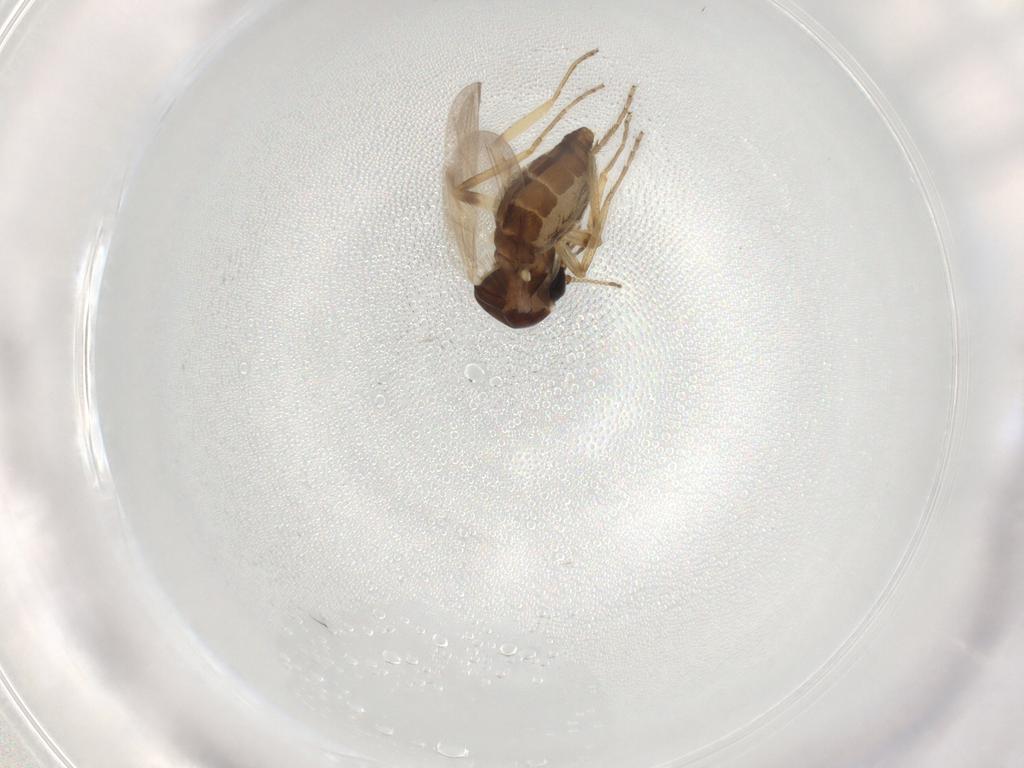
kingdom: Animalia
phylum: Arthropoda
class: Insecta
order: Diptera
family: Ceratopogonidae
